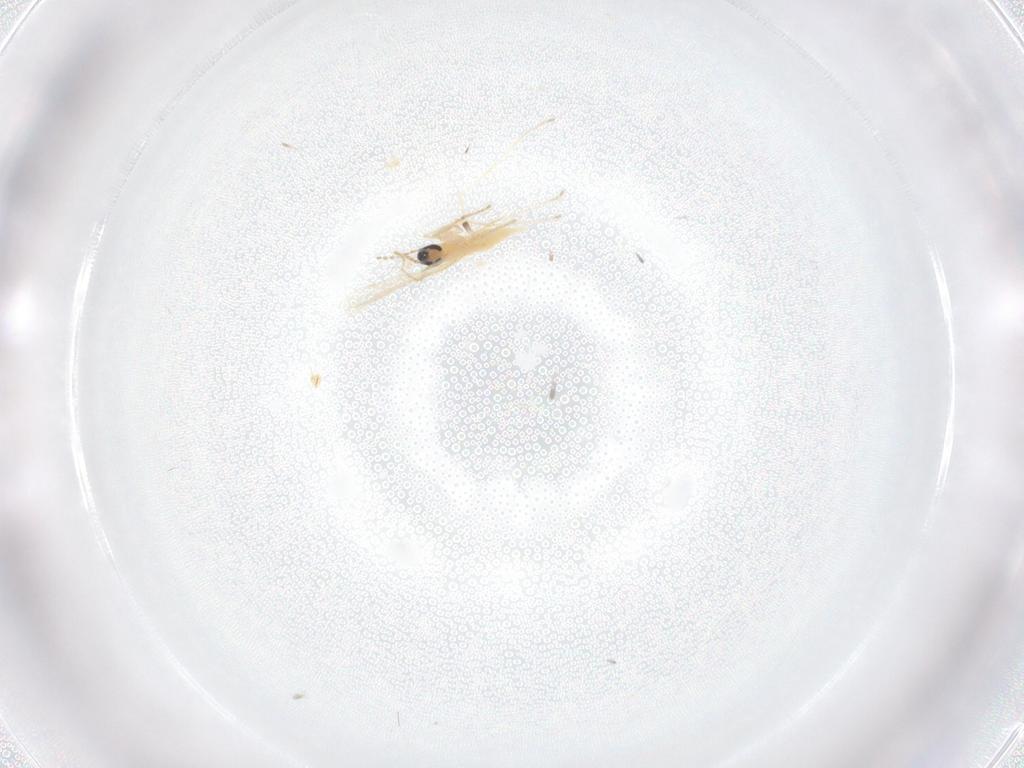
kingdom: Animalia
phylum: Arthropoda
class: Insecta
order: Diptera
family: Cecidomyiidae
